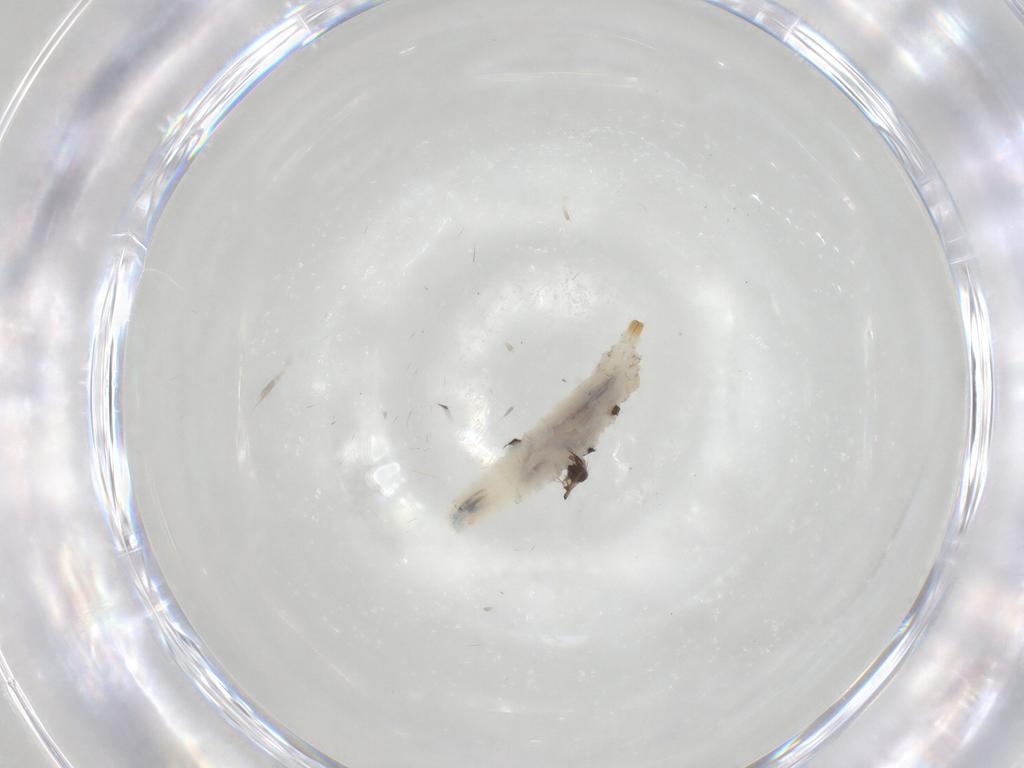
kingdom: Animalia
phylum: Arthropoda
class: Insecta
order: Diptera
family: Drosophilidae
